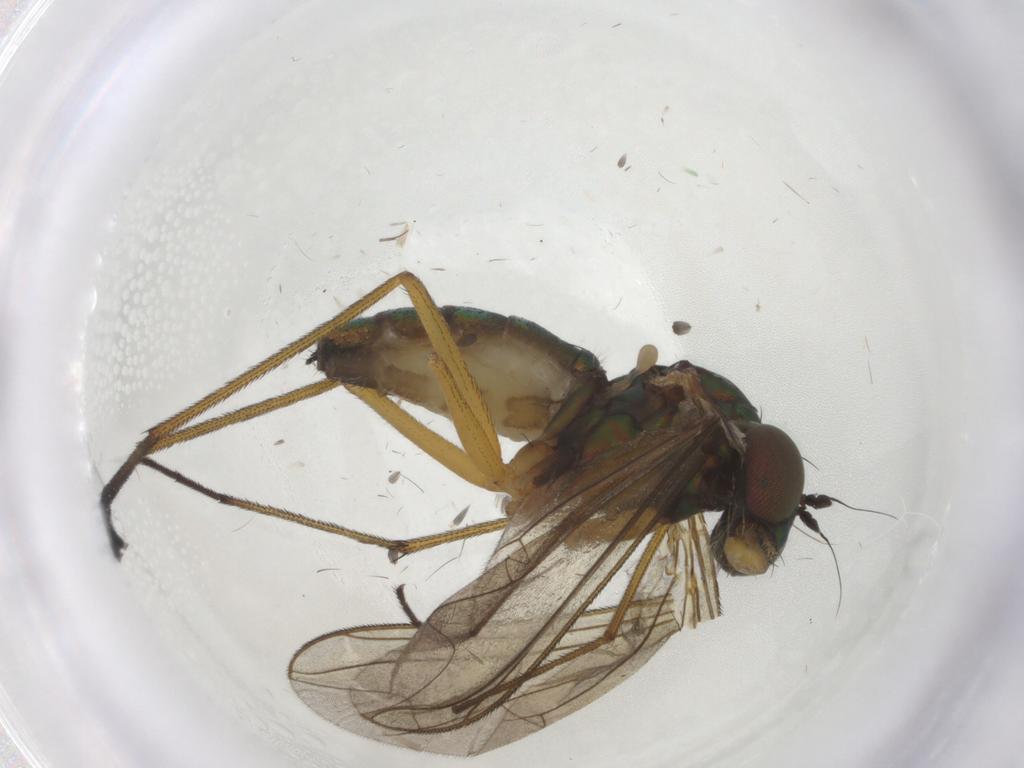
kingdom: Animalia
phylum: Arthropoda
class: Insecta
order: Diptera
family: Dolichopodidae
